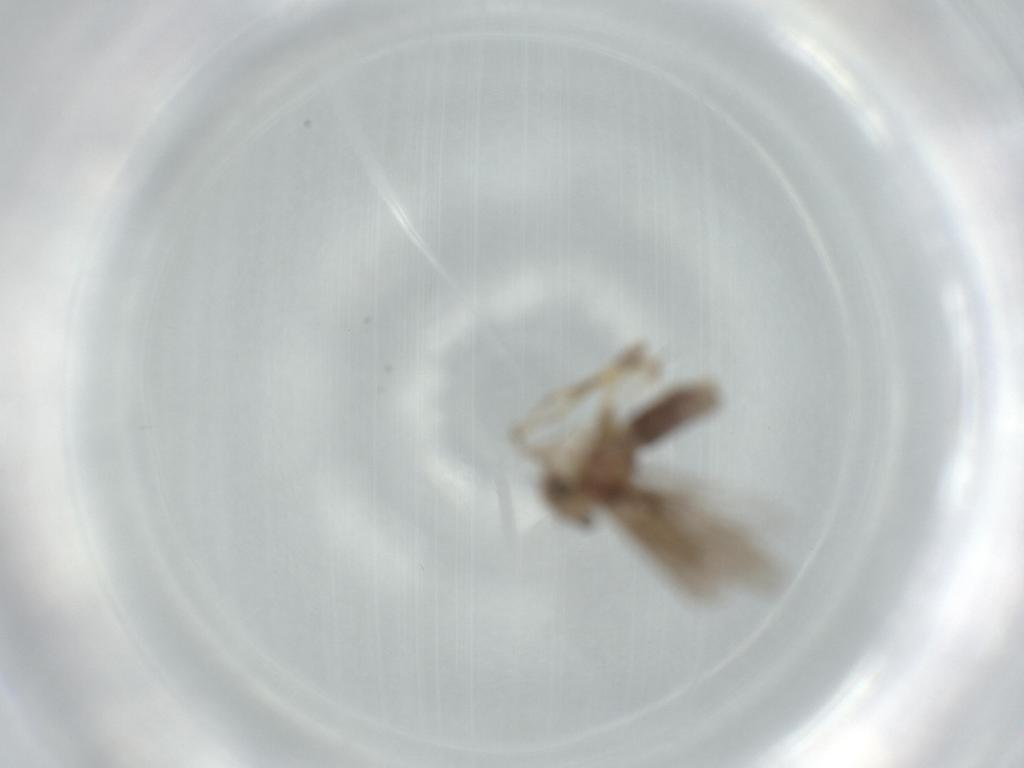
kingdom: Animalia
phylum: Arthropoda
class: Insecta
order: Psocodea
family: Lepidopsocidae
